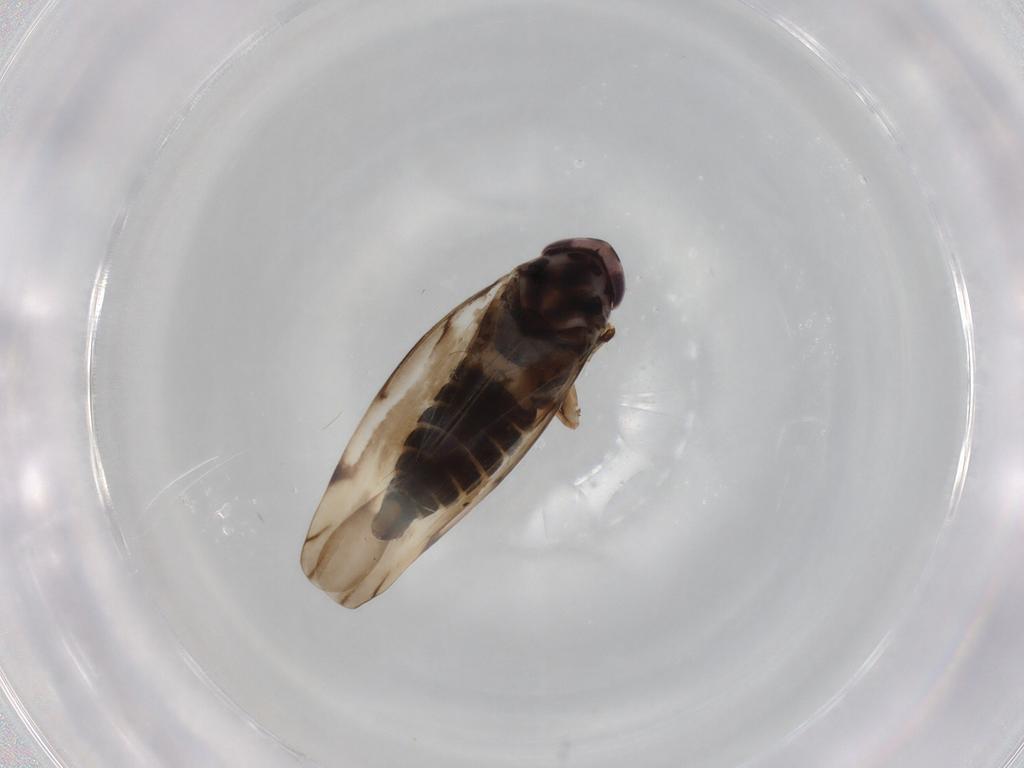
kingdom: Animalia
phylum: Arthropoda
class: Insecta
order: Hemiptera
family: Cicadellidae
